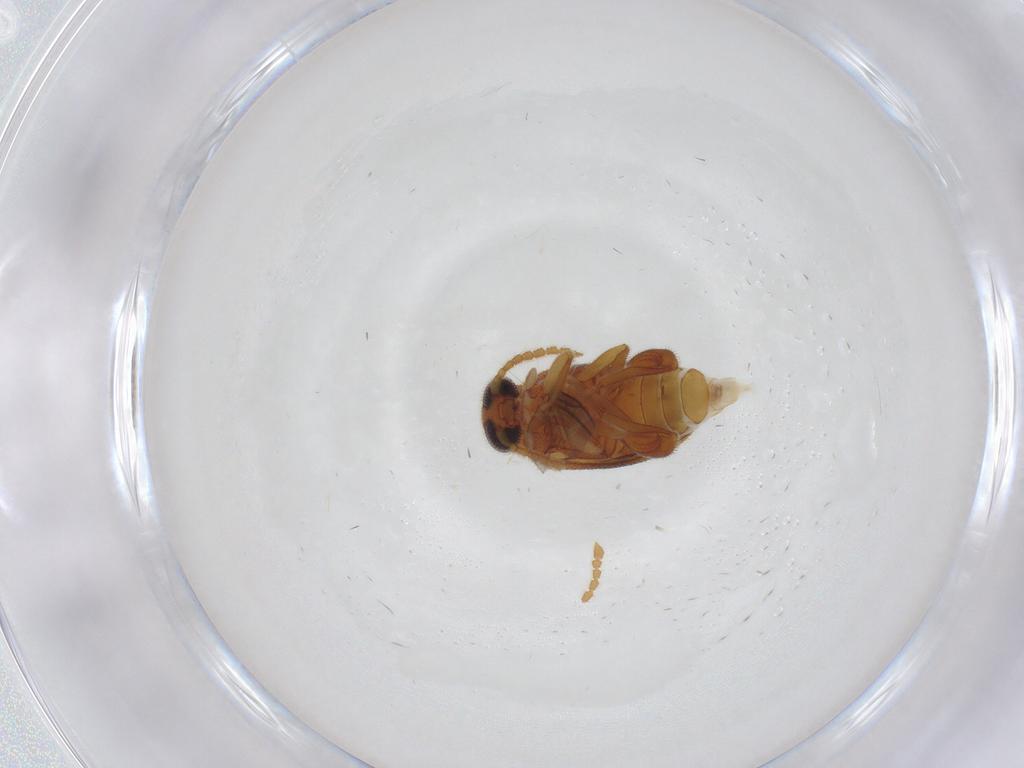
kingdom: Animalia
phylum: Arthropoda
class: Insecta
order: Coleoptera
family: Aderidae
